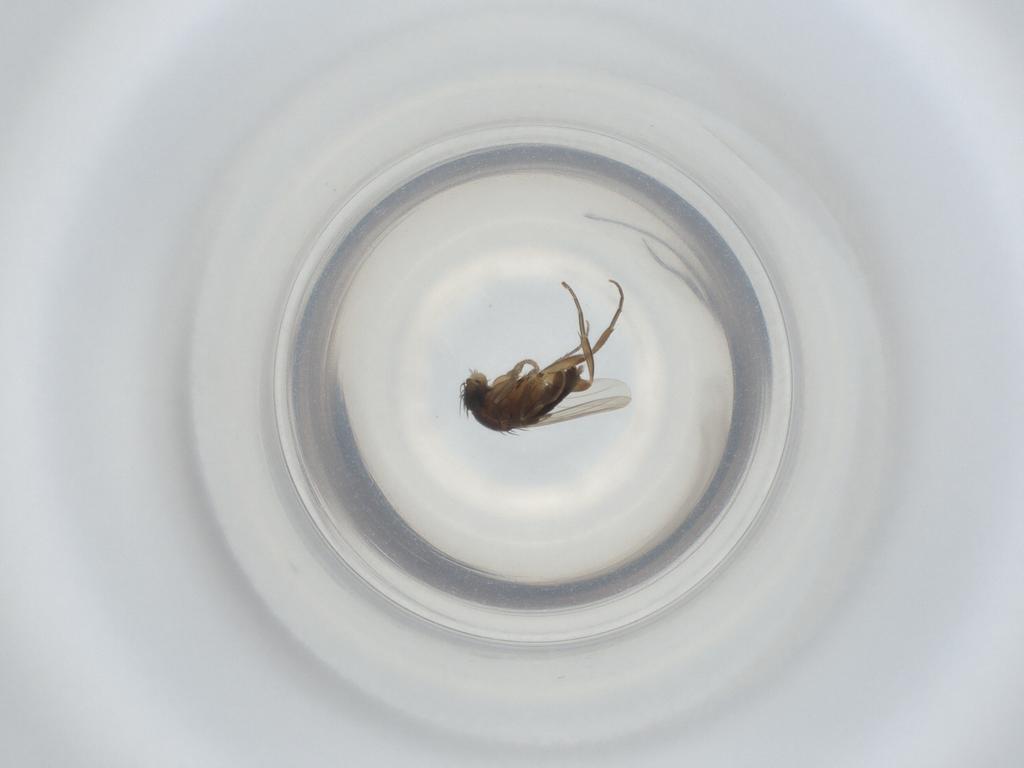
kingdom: Animalia
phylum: Arthropoda
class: Insecta
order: Diptera
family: Phoridae
